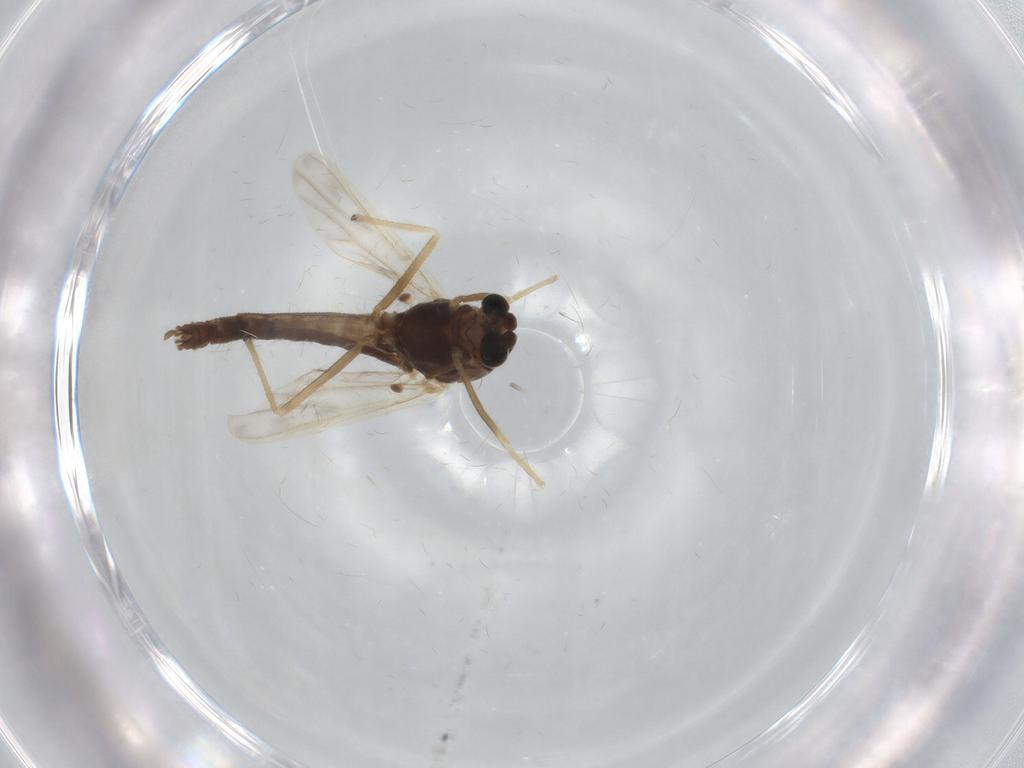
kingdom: Animalia
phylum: Arthropoda
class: Insecta
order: Diptera
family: Chironomidae
